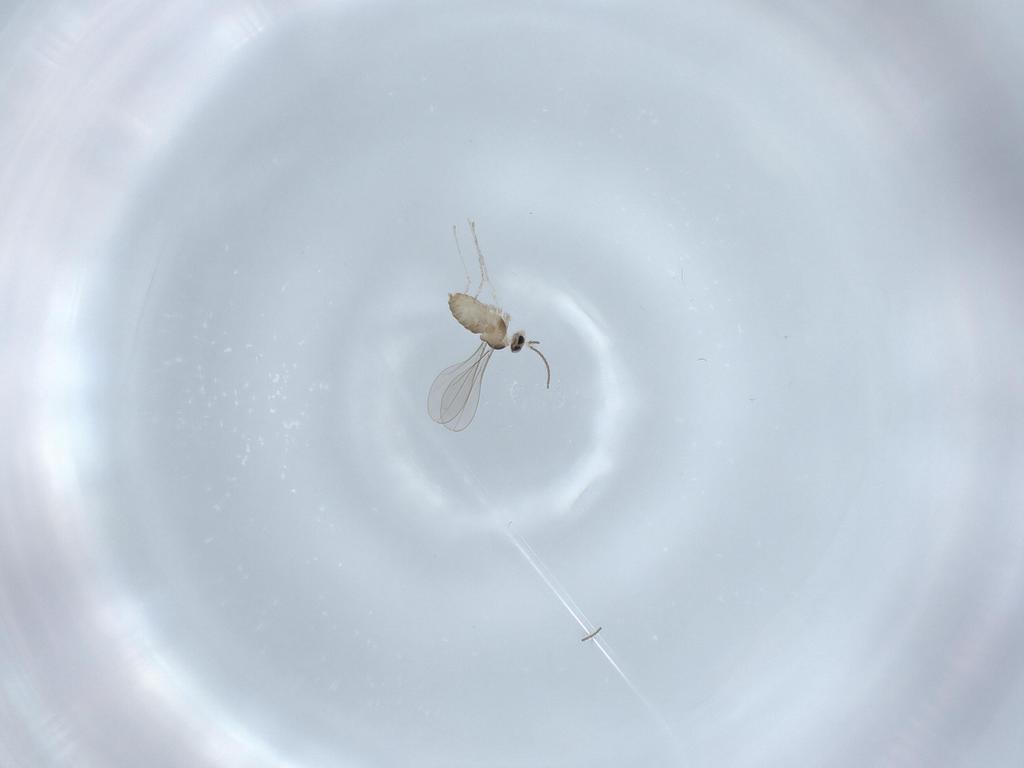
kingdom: Animalia
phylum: Arthropoda
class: Insecta
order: Diptera
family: Cecidomyiidae
